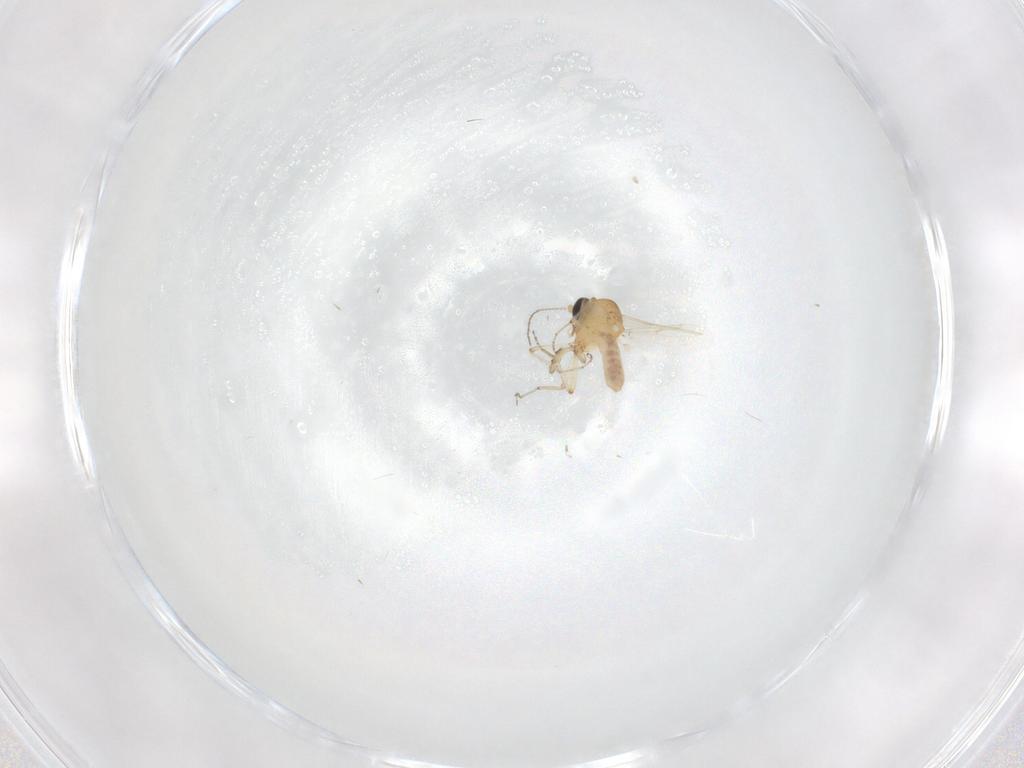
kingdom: Animalia
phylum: Arthropoda
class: Insecta
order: Diptera
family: Ceratopogonidae
